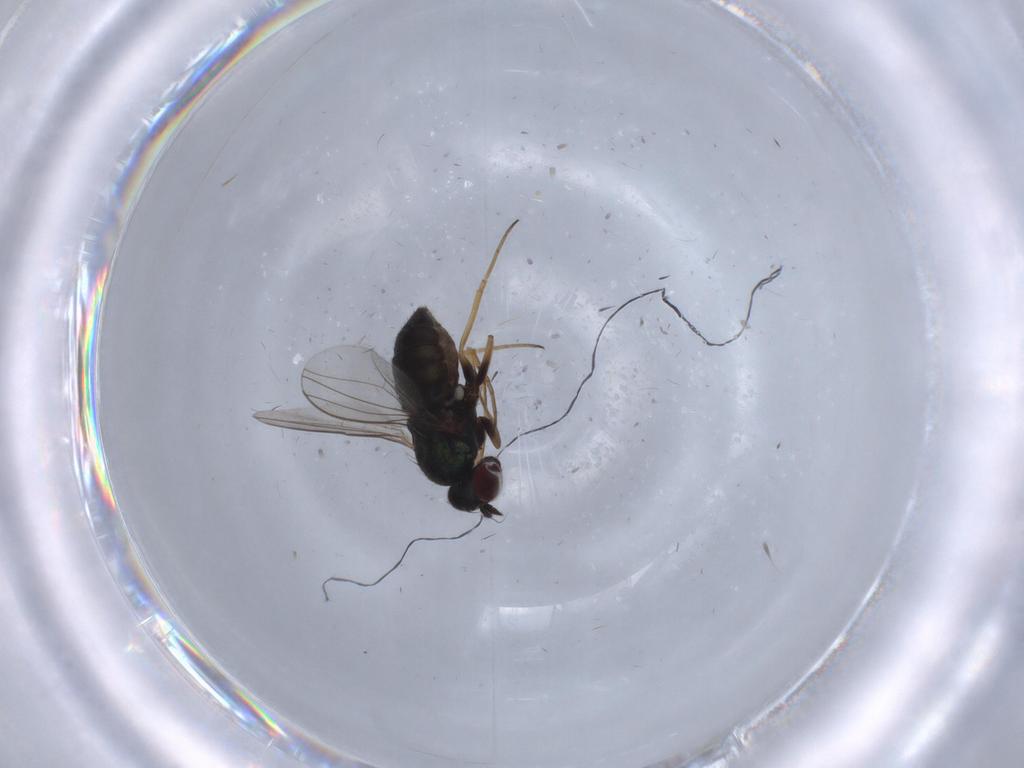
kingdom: Animalia
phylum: Arthropoda
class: Insecta
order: Diptera
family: Dolichopodidae
